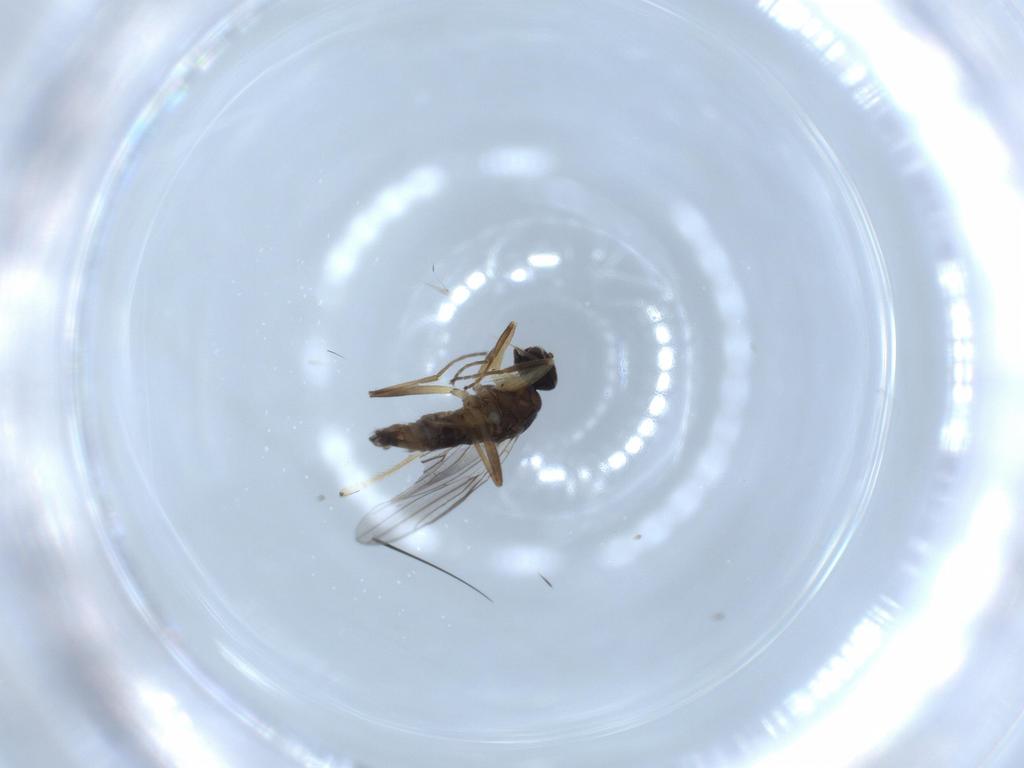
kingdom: Animalia
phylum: Arthropoda
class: Insecta
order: Diptera
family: Hybotidae
